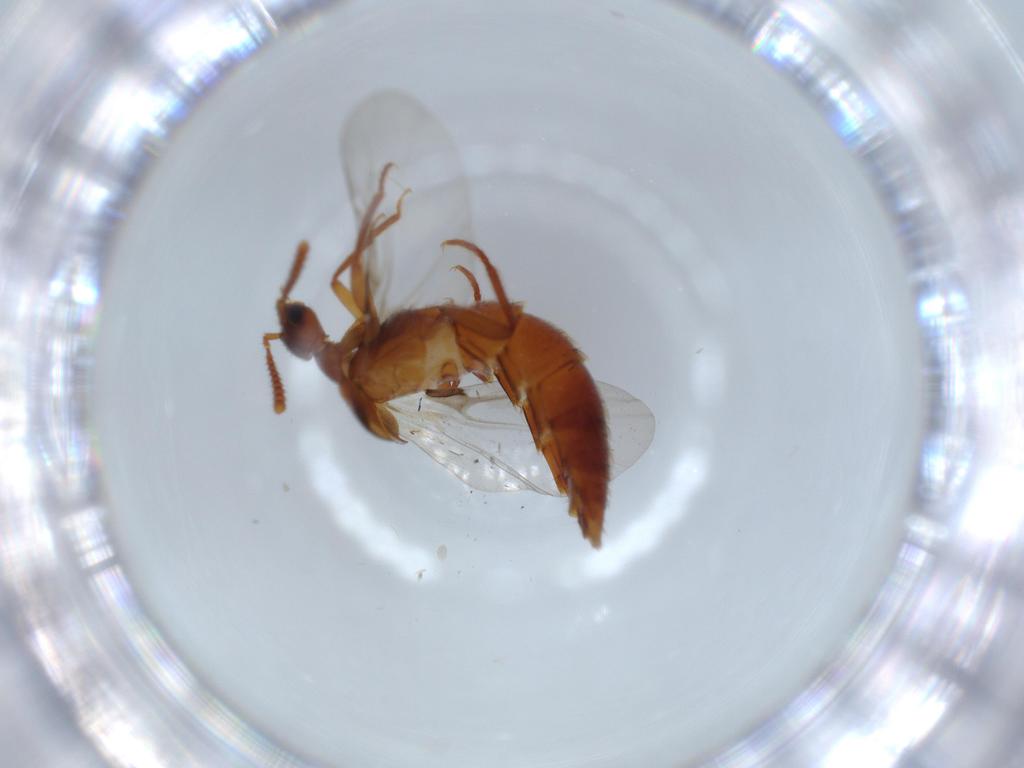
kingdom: Animalia
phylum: Arthropoda
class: Insecta
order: Coleoptera
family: Staphylinidae
